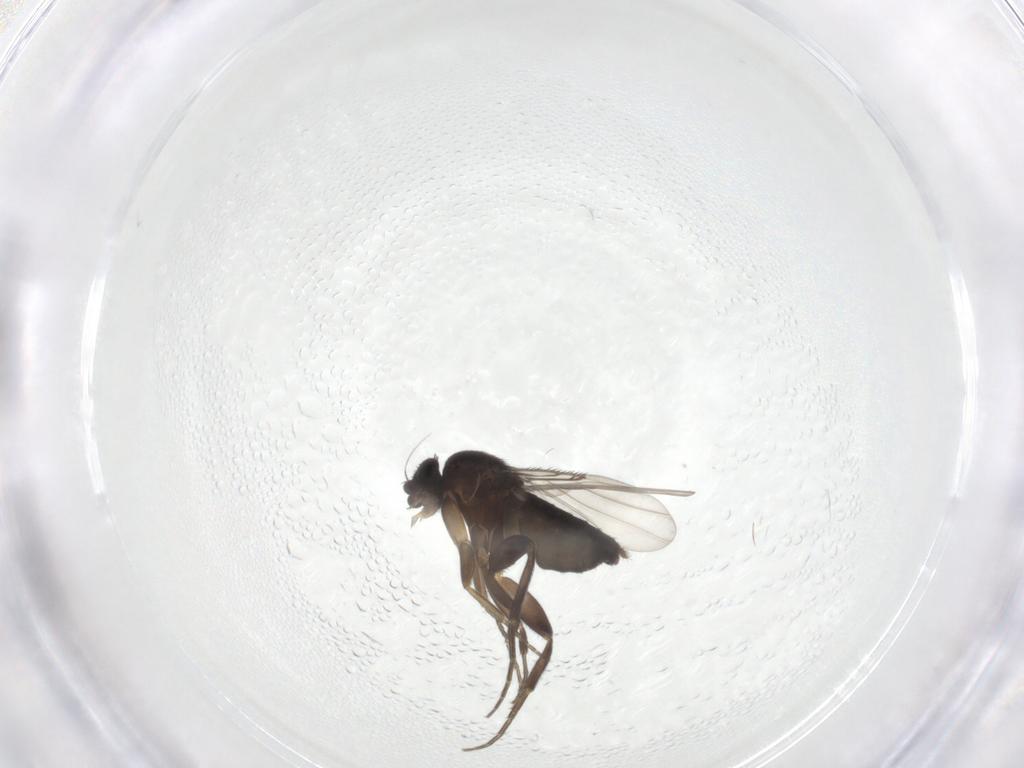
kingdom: Animalia
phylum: Arthropoda
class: Insecta
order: Diptera
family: Phoridae
